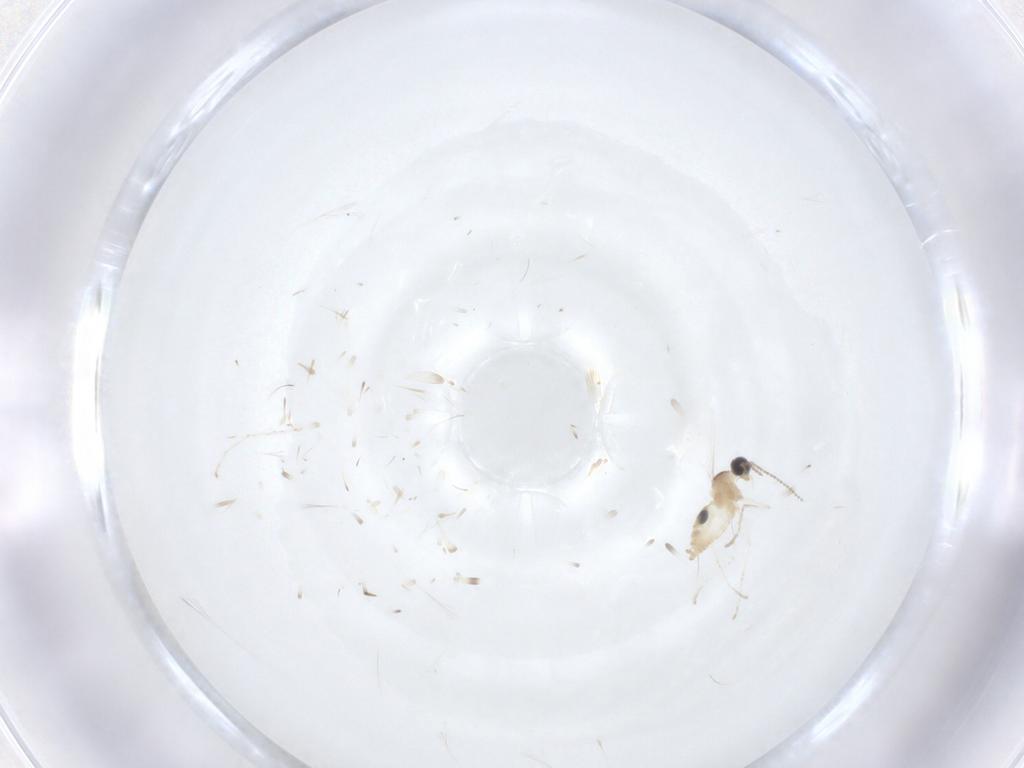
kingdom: Animalia
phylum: Arthropoda
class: Insecta
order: Diptera
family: Cecidomyiidae
